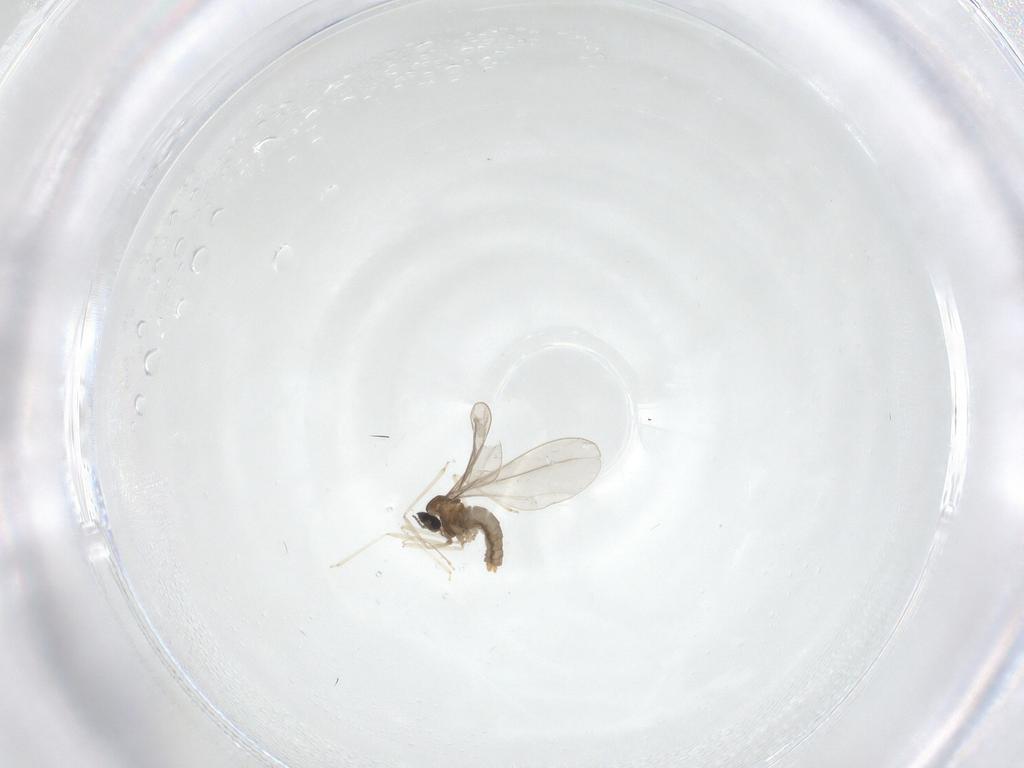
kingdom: Animalia
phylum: Arthropoda
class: Insecta
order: Diptera
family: Cecidomyiidae
